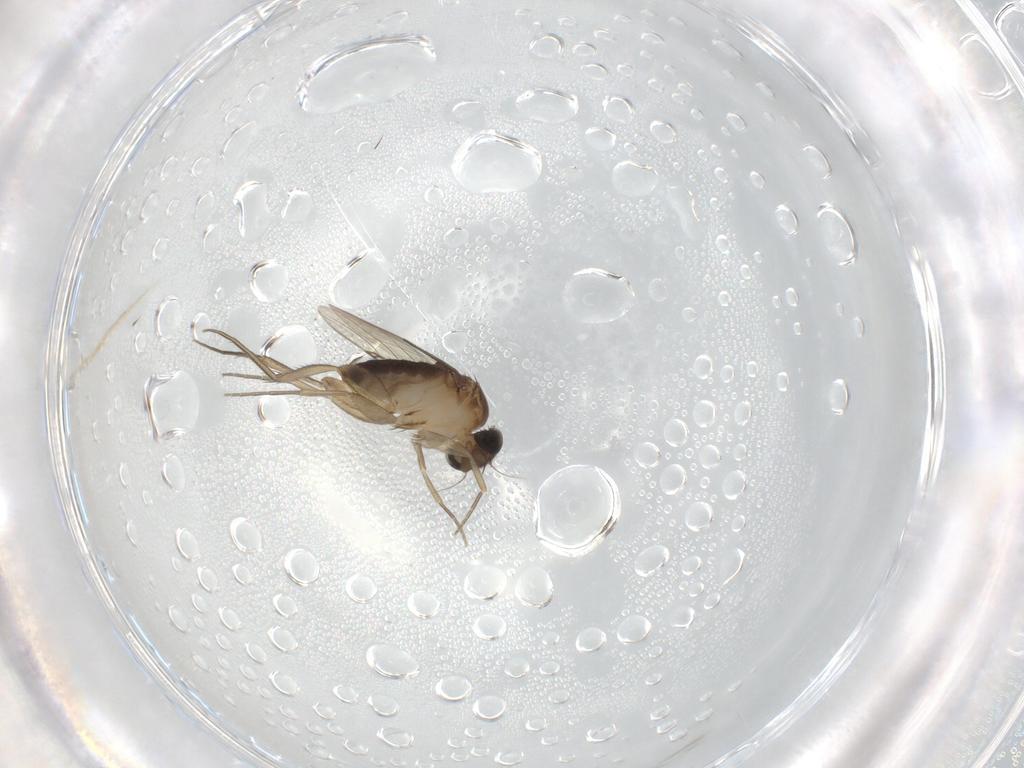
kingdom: Animalia
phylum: Arthropoda
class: Insecta
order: Diptera
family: Phoridae
